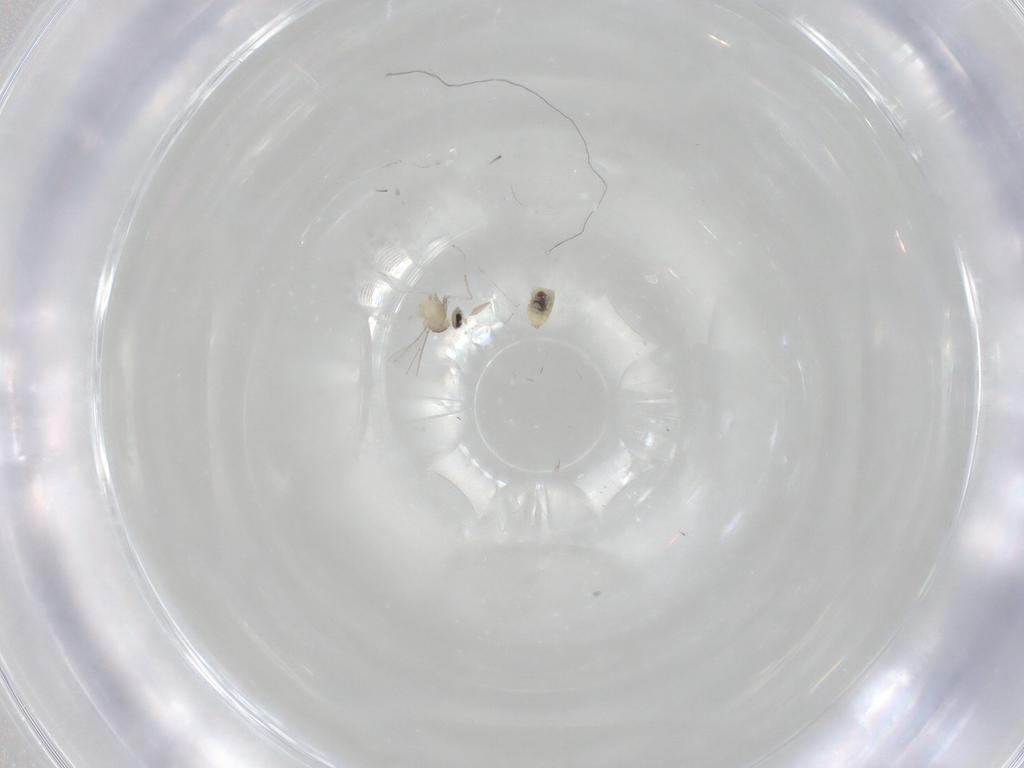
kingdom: Animalia
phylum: Arthropoda
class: Insecta
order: Diptera
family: Cecidomyiidae
